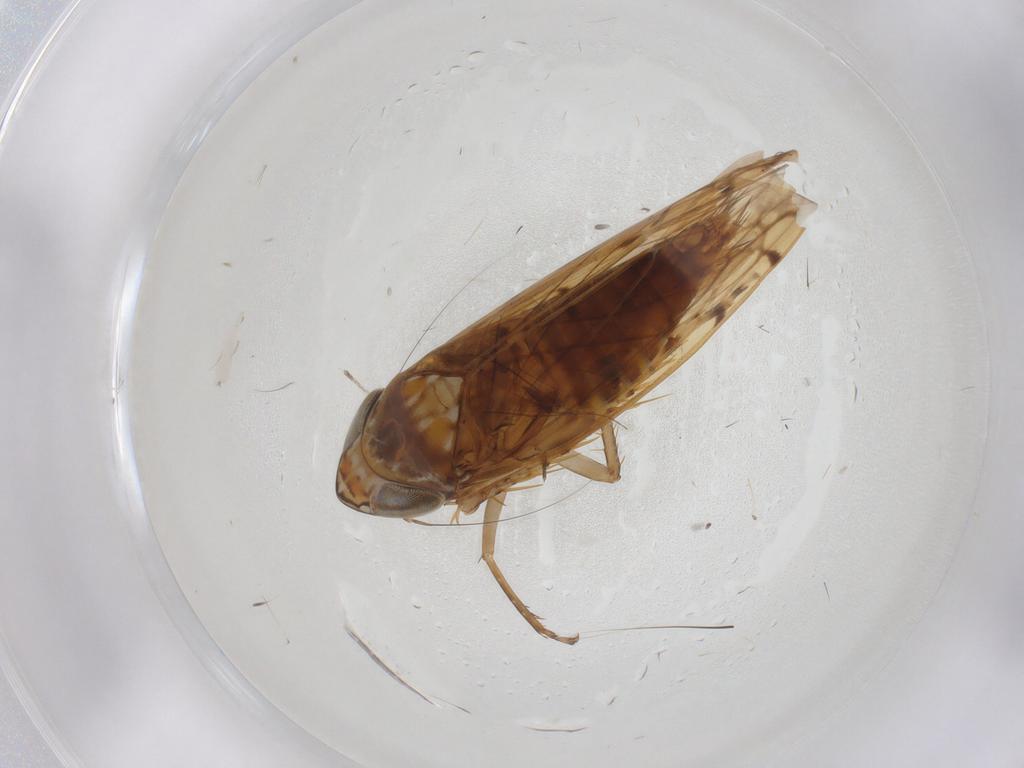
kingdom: Animalia
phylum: Arthropoda
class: Insecta
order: Hemiptera
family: Cicadellidae
